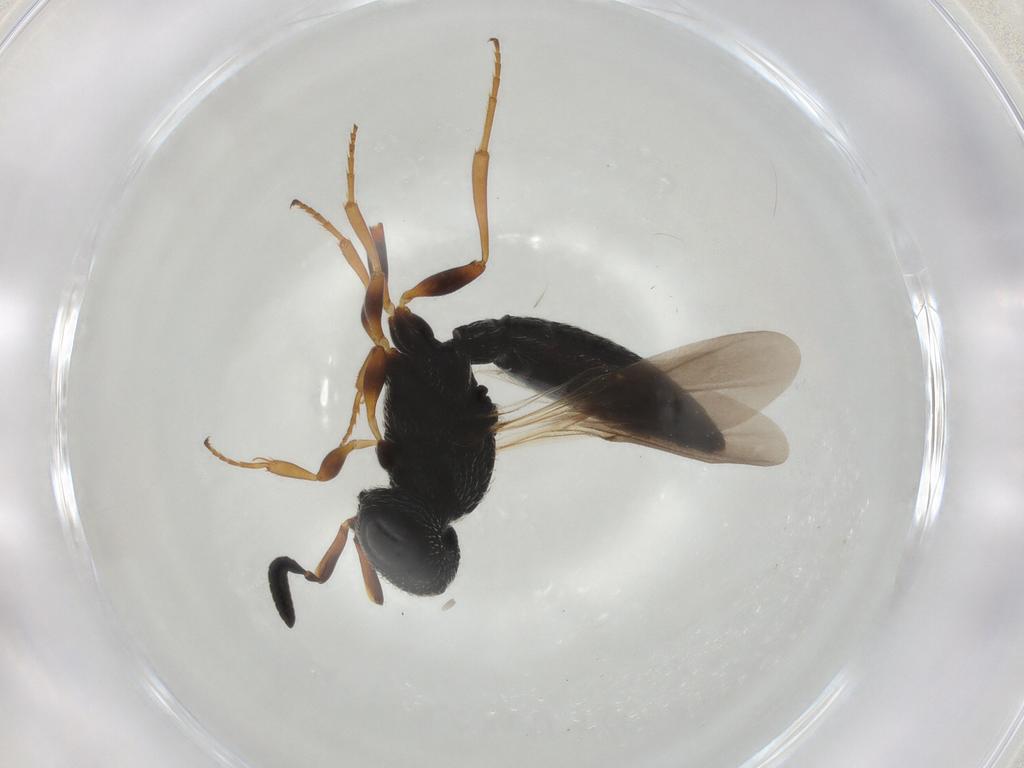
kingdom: Animalia
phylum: Arthropoda
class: Insecta
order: Hymenoptera
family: Scelionidae
